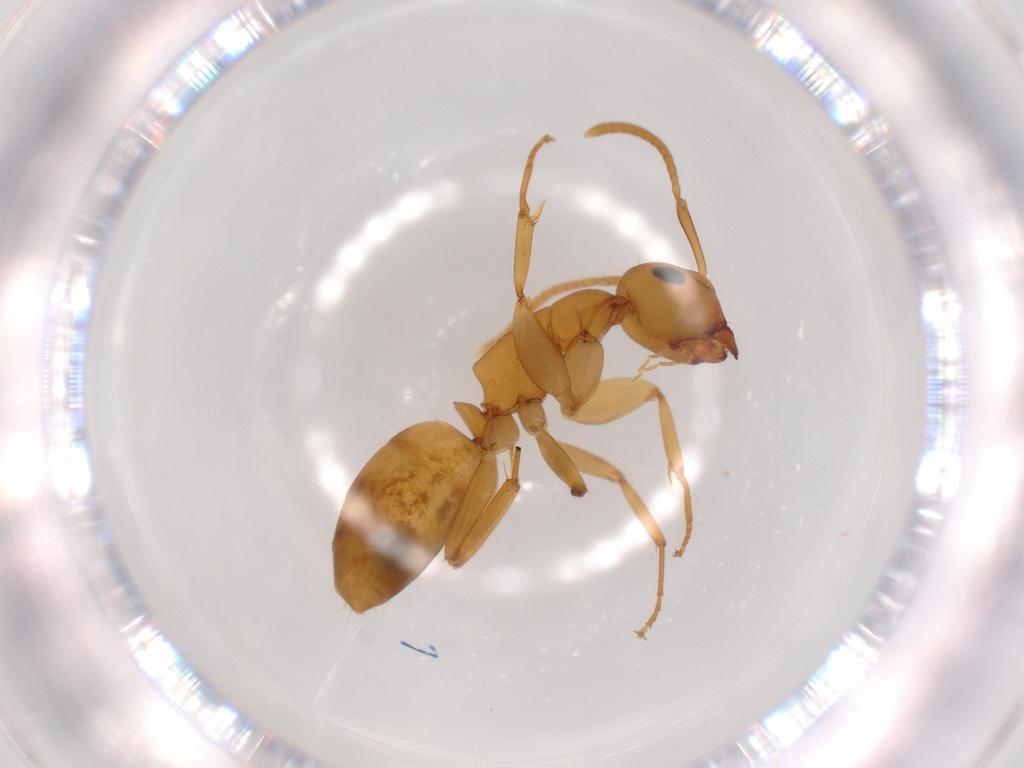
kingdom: Animalia
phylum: Arthropoda
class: Insecta
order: Hymenoptera
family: Formicidae
